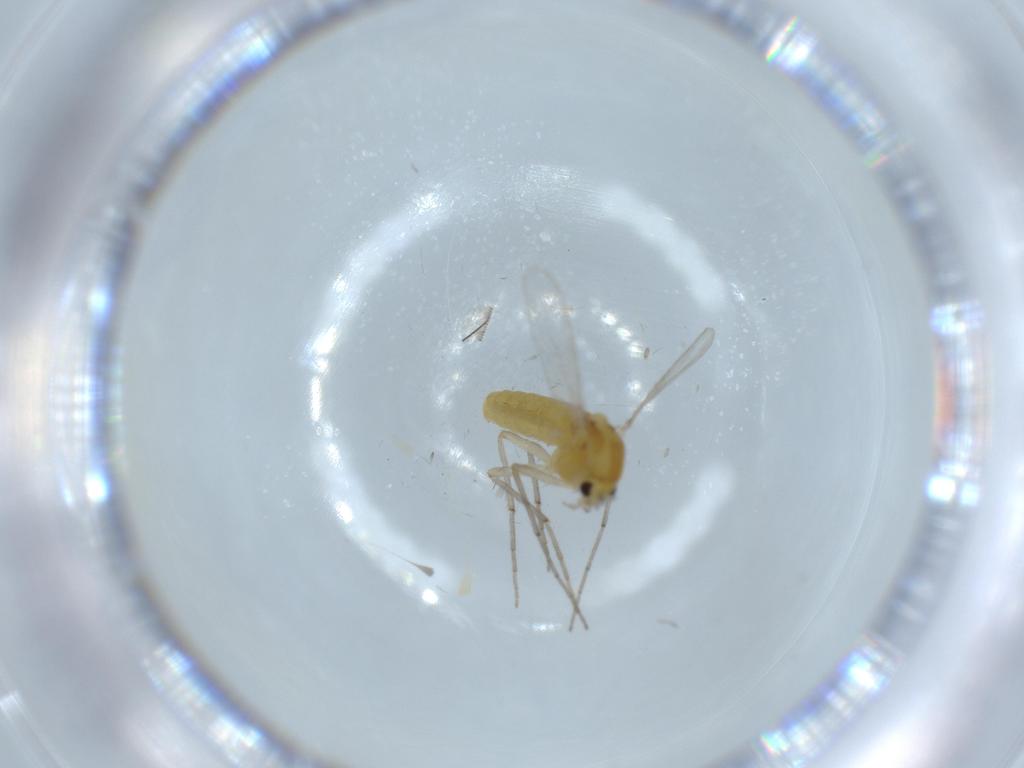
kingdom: Animalia
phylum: Arthropoda
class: Insecta
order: Diptera
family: Chironomidae
